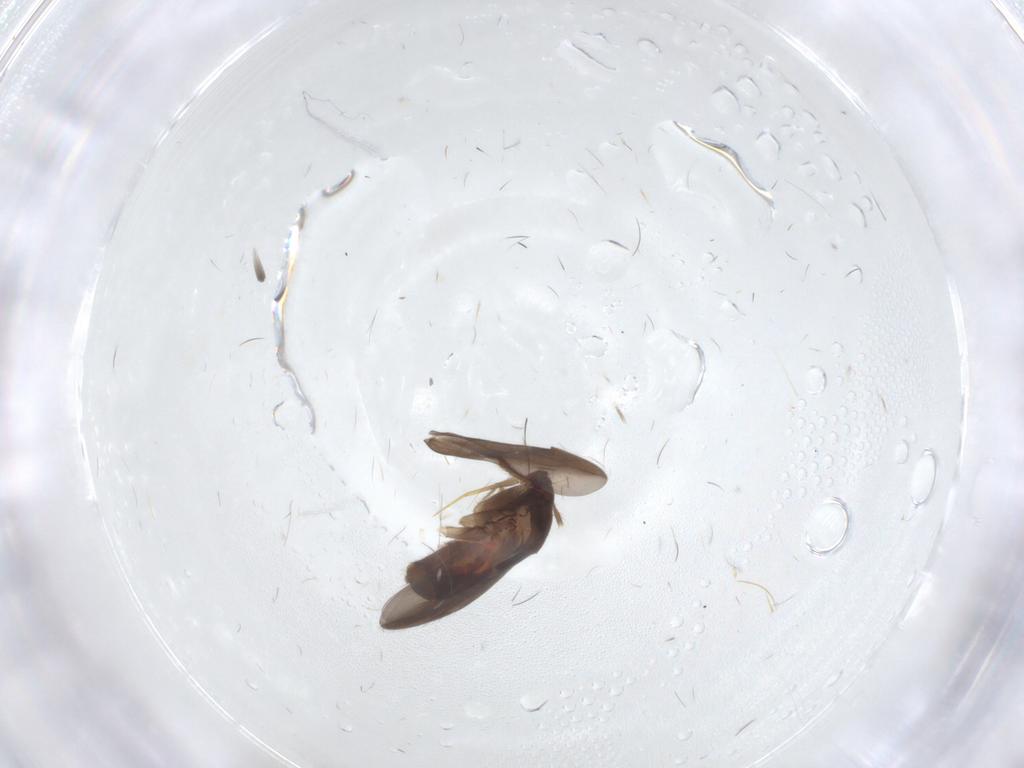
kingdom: Animalia
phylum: Arthropoda
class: Insecta
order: Hemiptera
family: Ceratocombidae
